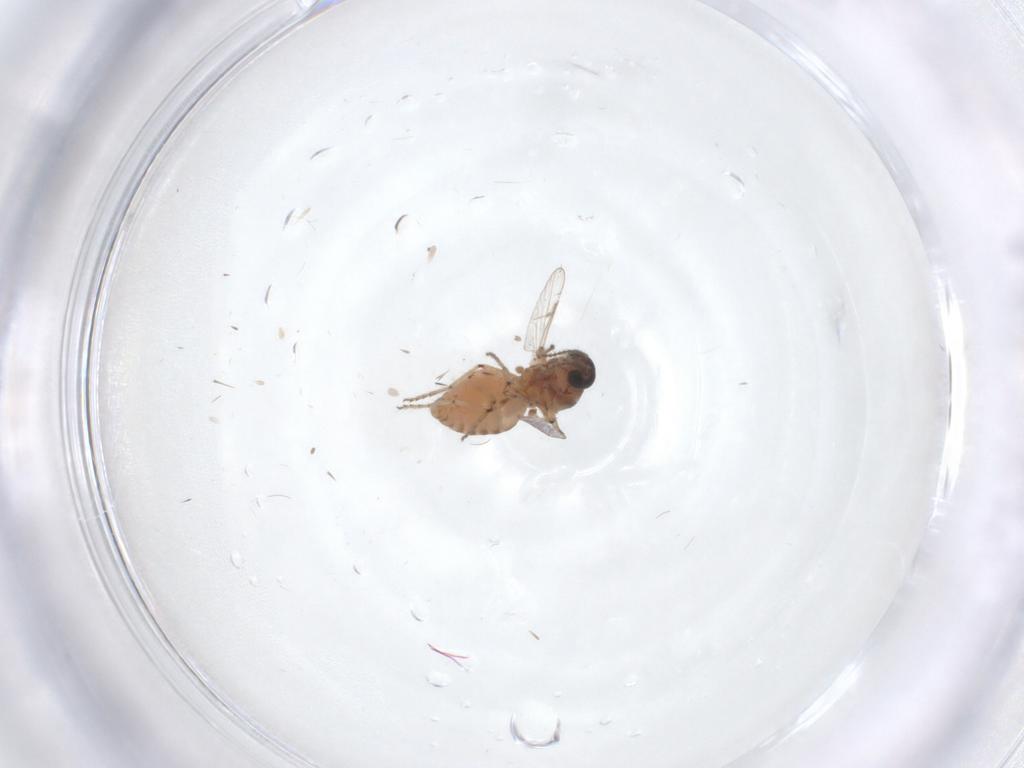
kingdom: Animalia
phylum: Arthropoda
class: Insecta
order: Diptera
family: Ceratopogonidae
